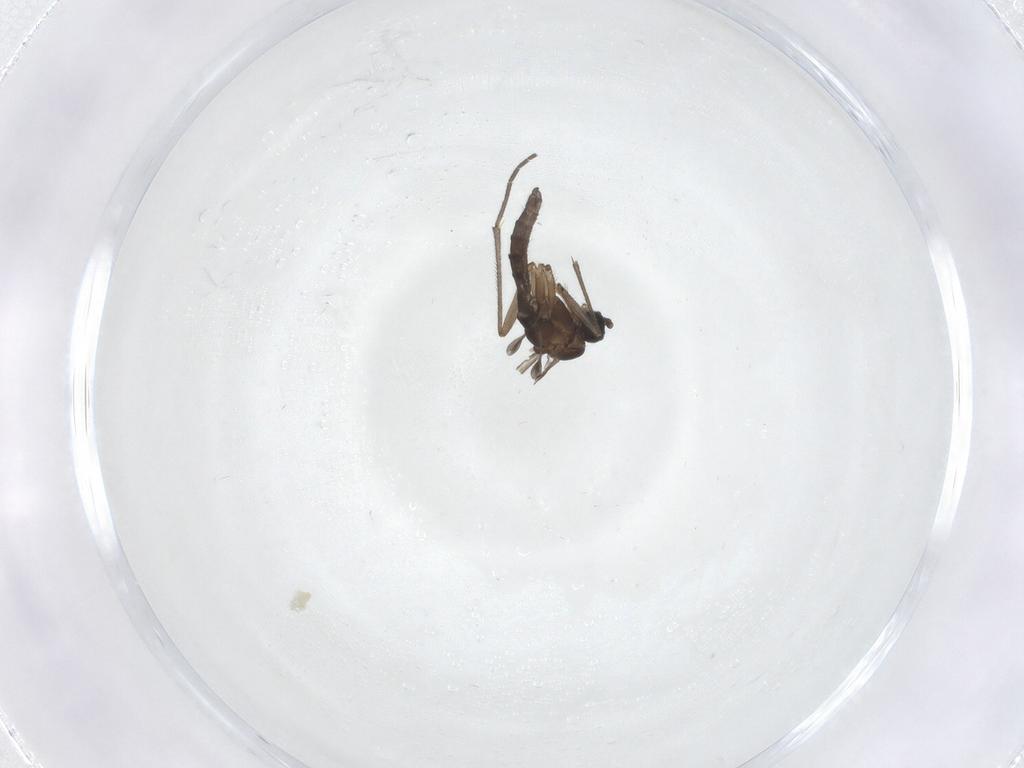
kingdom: Animalia
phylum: Arthropoda
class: Insecta
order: Diptera
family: Sciaridae
